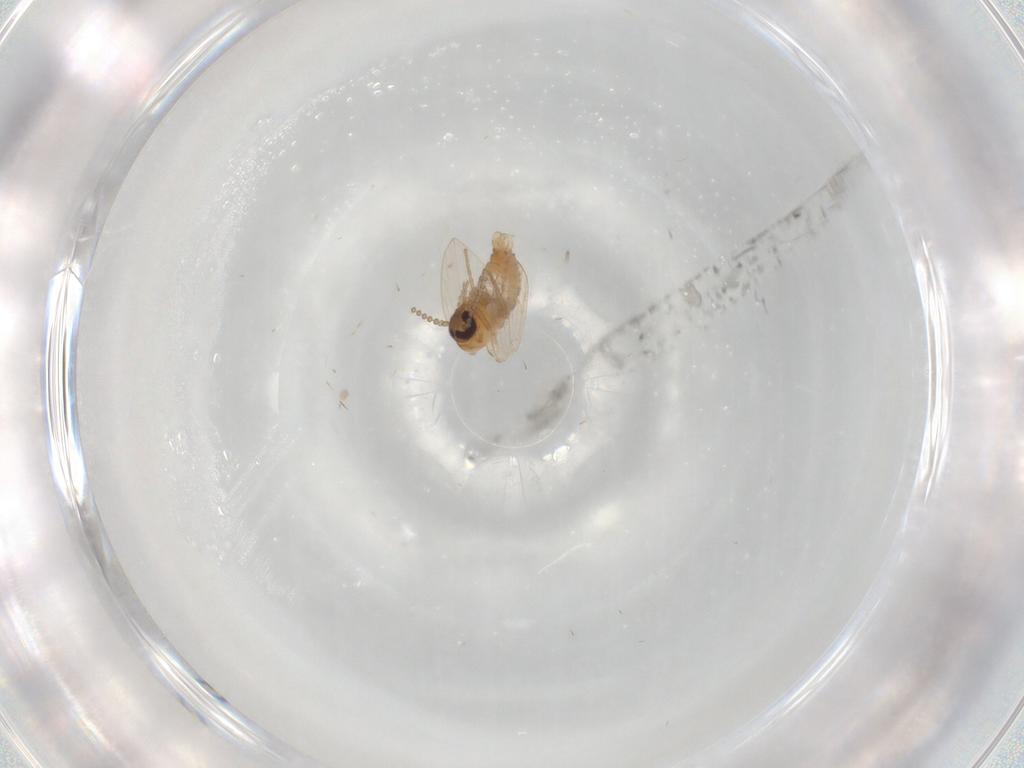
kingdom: Animalia
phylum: Arthropoda
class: Insecta
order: Diptera
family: Psychodidae
